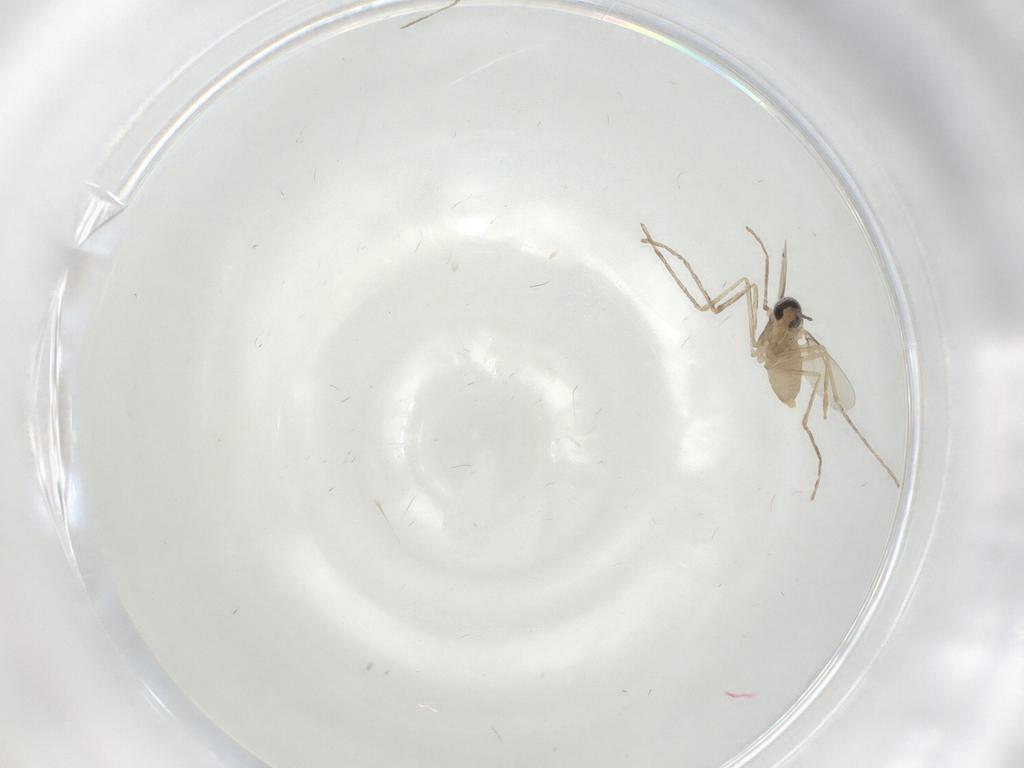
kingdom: Animalia
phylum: Arthropoda
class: Insecta
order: Diptera
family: Cecidomyiidae
